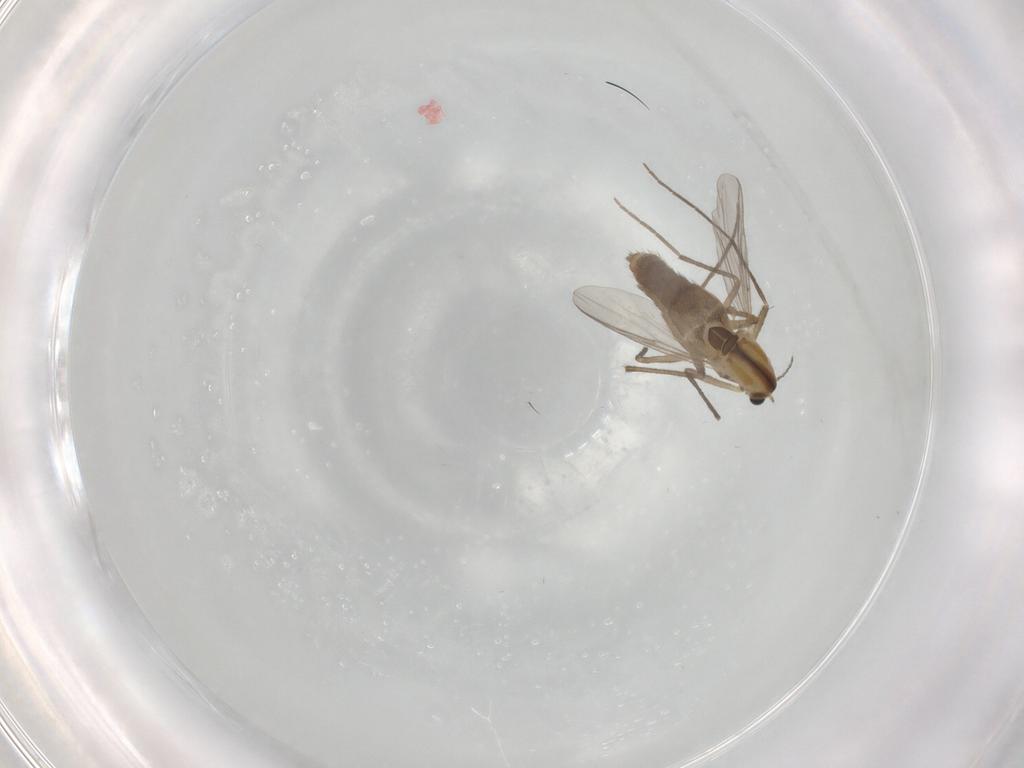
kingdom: Animalia
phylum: Arthropoda
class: Insecta
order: Diptera
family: Chironomidae
